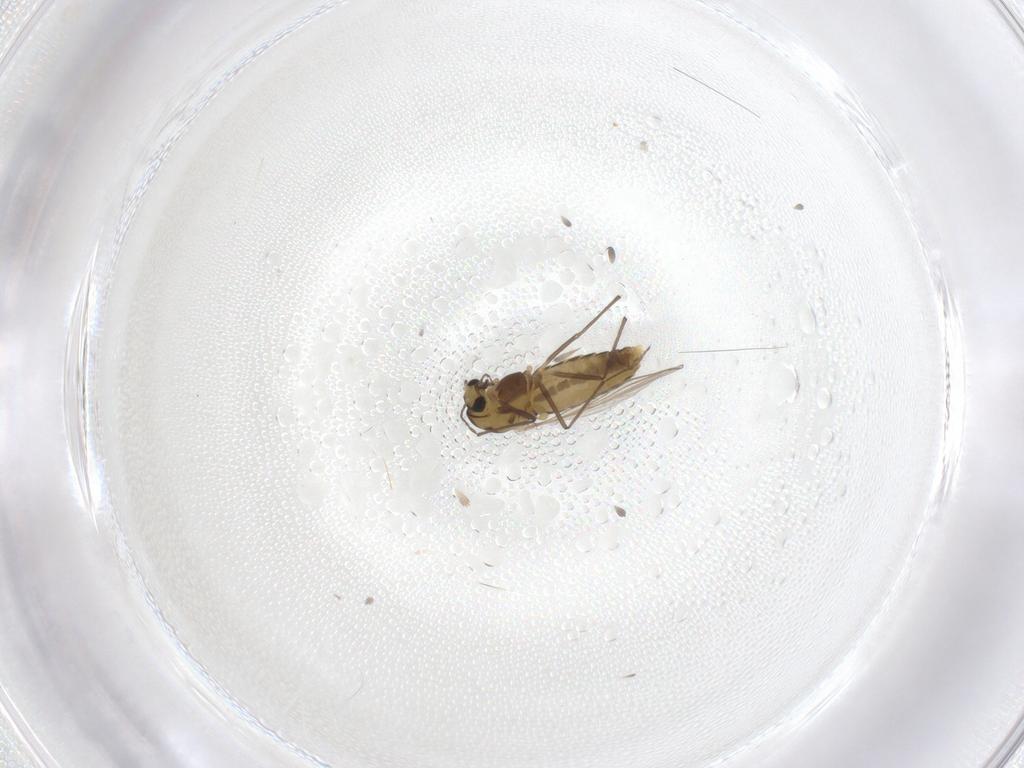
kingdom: Animalia
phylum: Arthropoda
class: Insecta
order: Diptera
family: Chironomidae
